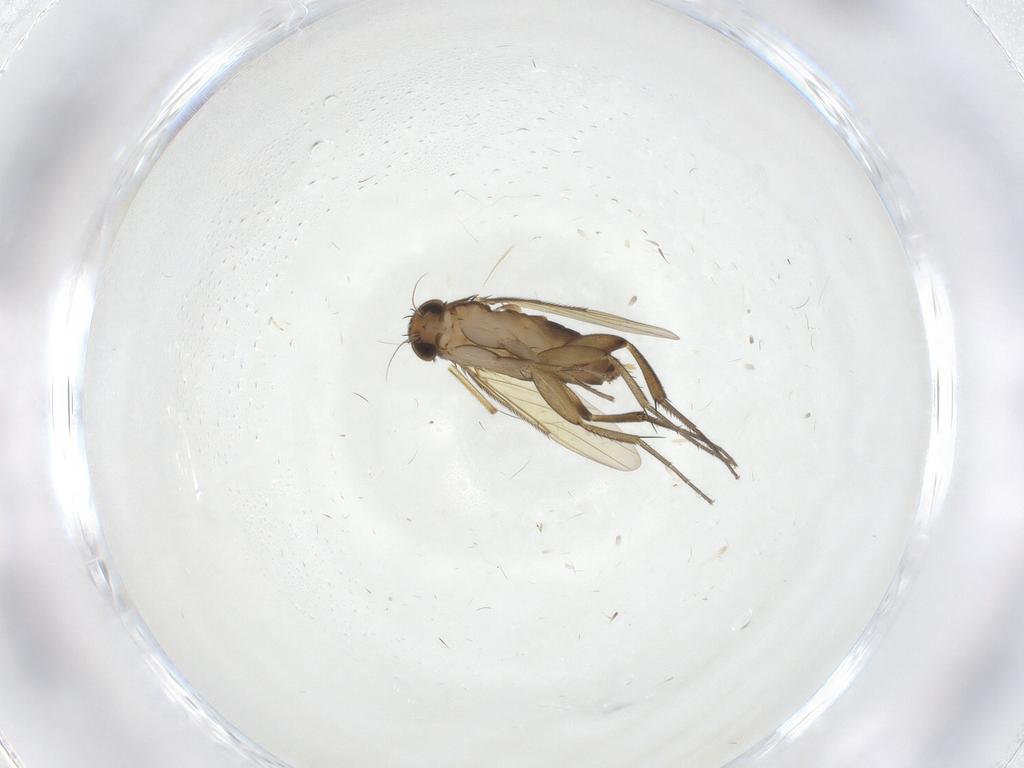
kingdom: Animalia
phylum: Arthropoda
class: Insecta
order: Diptera
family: Phoridae
